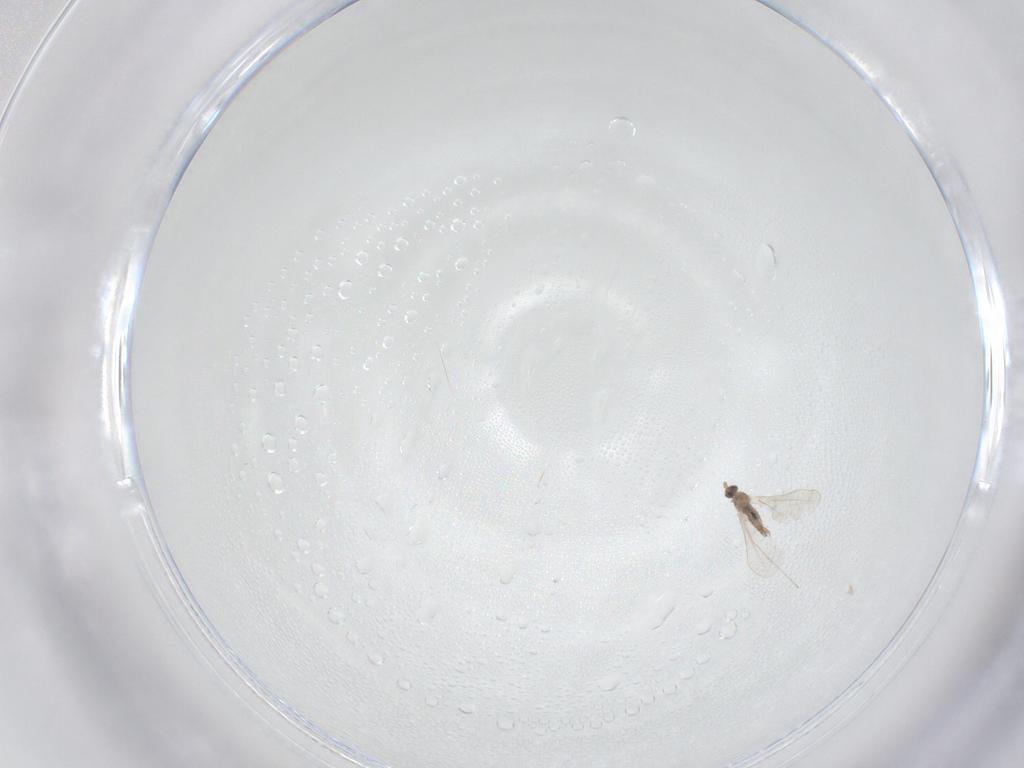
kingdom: Animalia
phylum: Arthropoda
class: Insecta
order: Diptera
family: Cecidomyiidae
